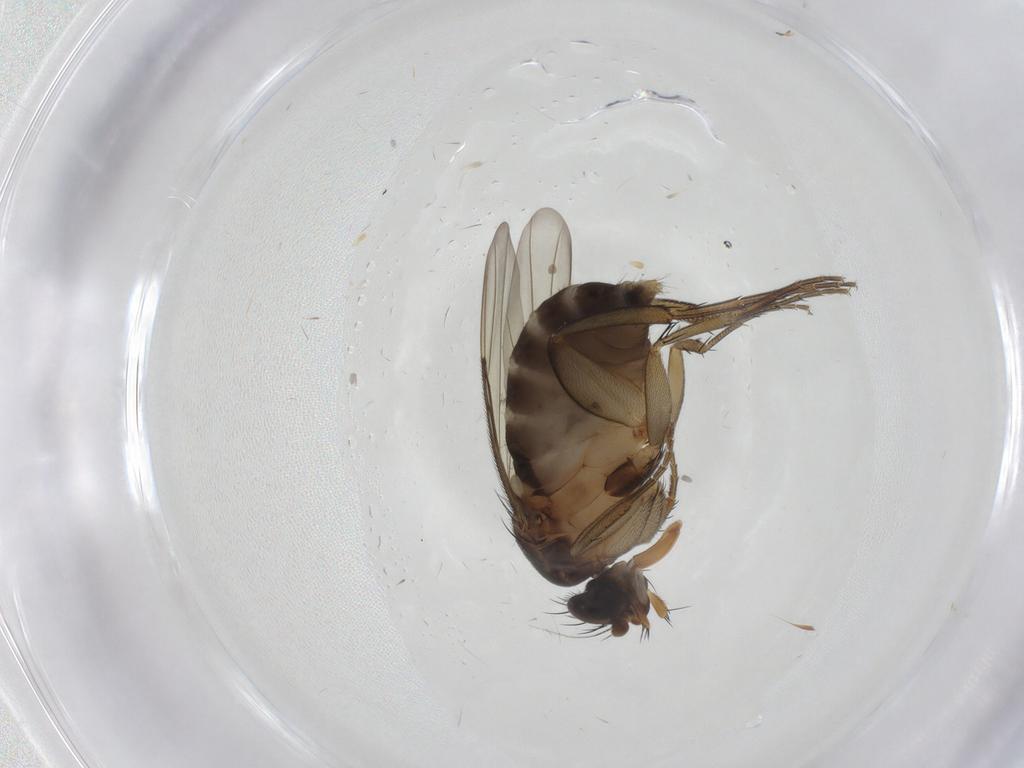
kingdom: Animalia
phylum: Arthropoda
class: Insecta
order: Diptera
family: Phoridae
